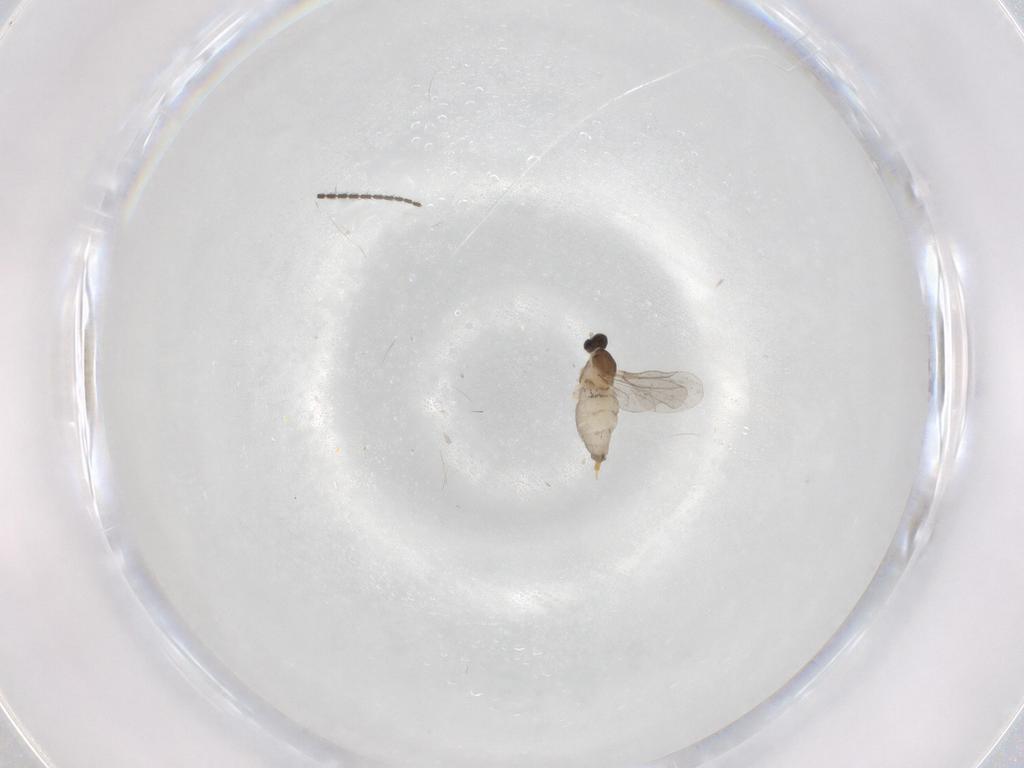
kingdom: Animalia
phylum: Arthropoda
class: Insecta
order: Diptera
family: Cecidomyiidae
